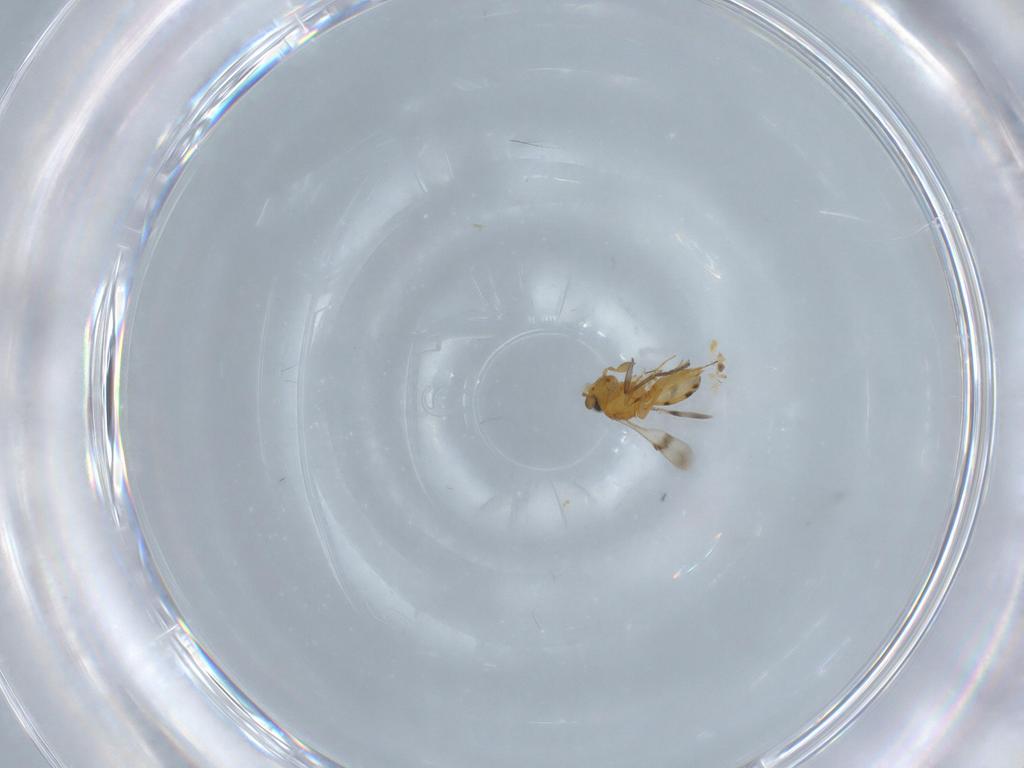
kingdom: Animalia
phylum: Arthropoda
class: Insecta
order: Hymenoptera
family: Scelionidae
